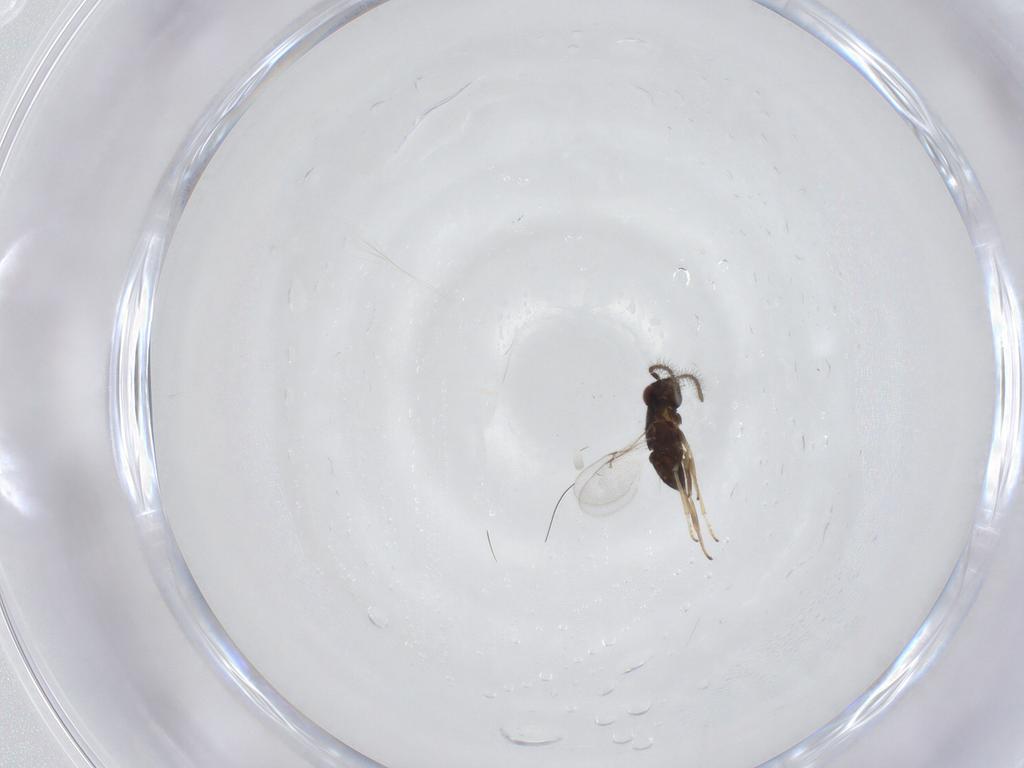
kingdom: Animalia
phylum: Arthropoda
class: Insecta
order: Hymenoptera
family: Encyrtidae
